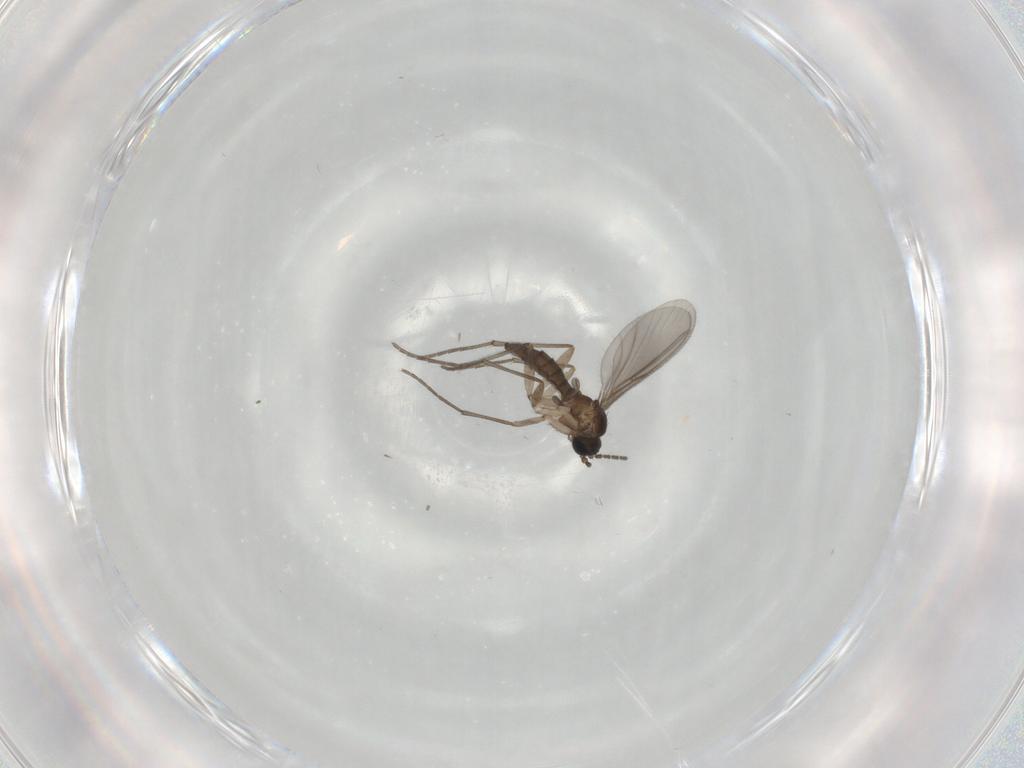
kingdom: Animalia
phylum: Arthropoda
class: Insecta
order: Diptera
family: Sciaridae
